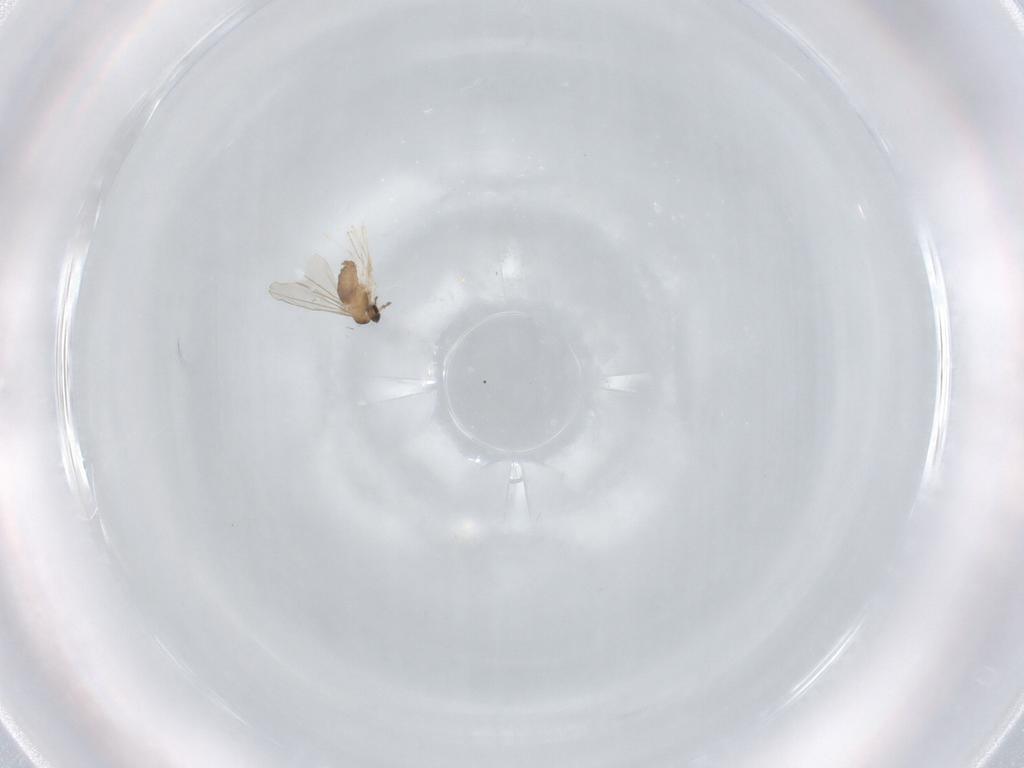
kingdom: Animalia
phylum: Arthropoda
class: Insecta
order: Diptera
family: Cecidomyiidae
